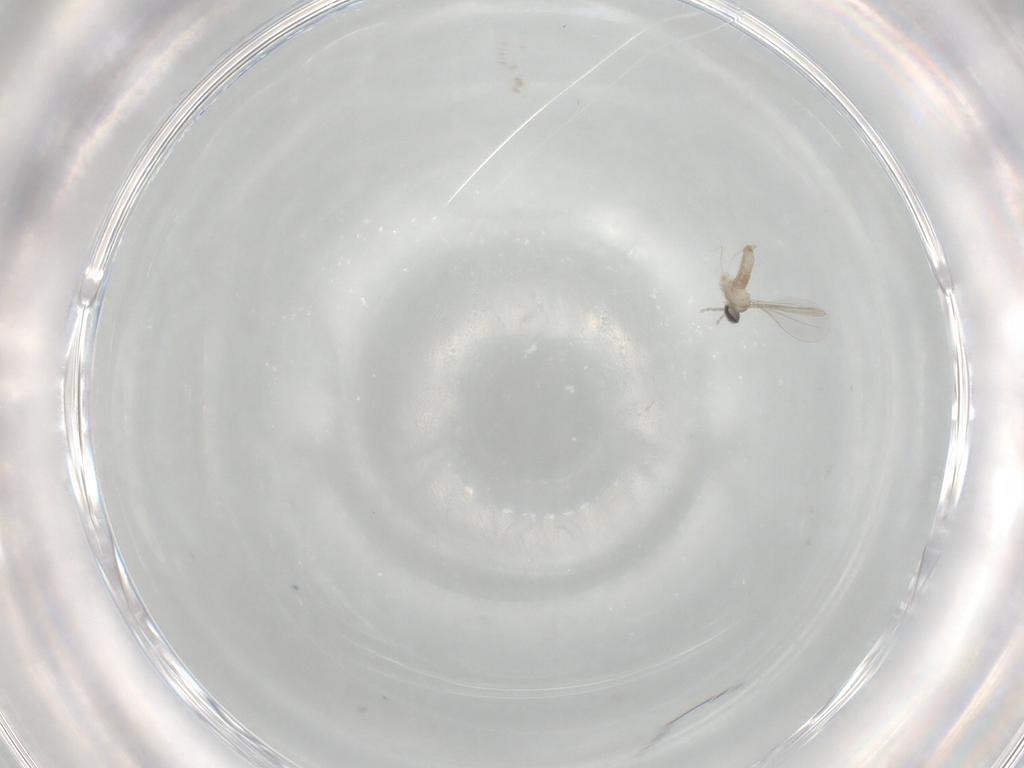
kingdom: Animalia
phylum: Arthropoda
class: Insecta
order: Diptera
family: Cecidomyiidae
